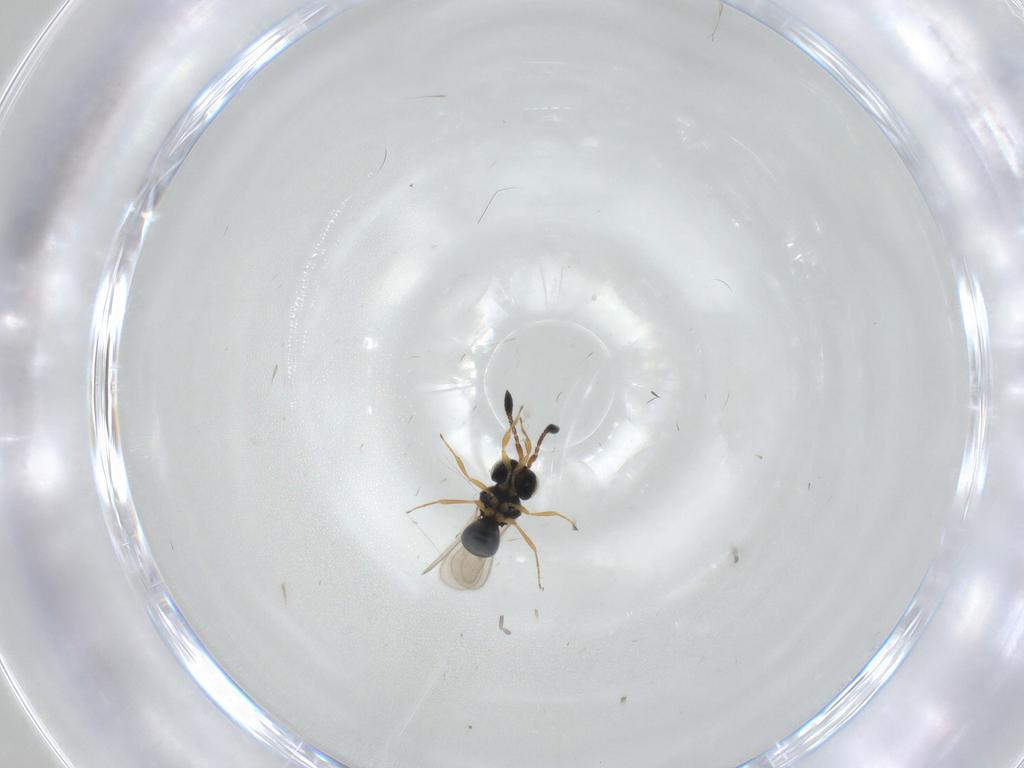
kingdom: Animalia
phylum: Arthropoda
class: Insecta
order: Hymenoptera
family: Scelionidae
